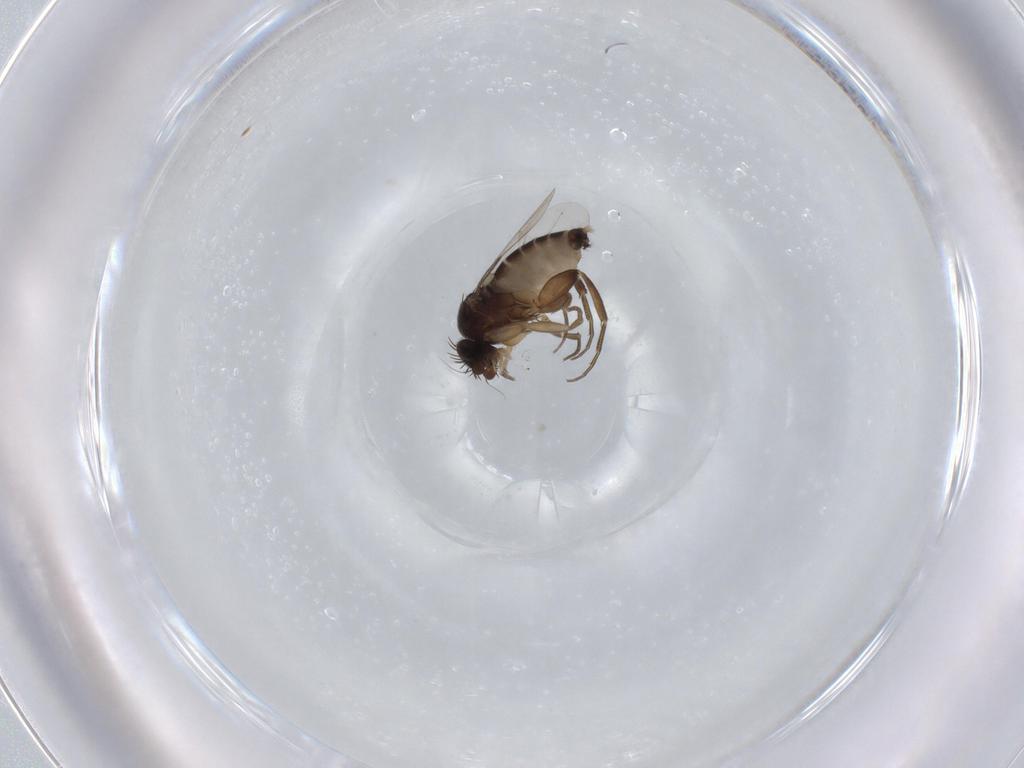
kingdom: Animalia
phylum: Arthropoda
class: Insecta
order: Diptera
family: Phoridae
